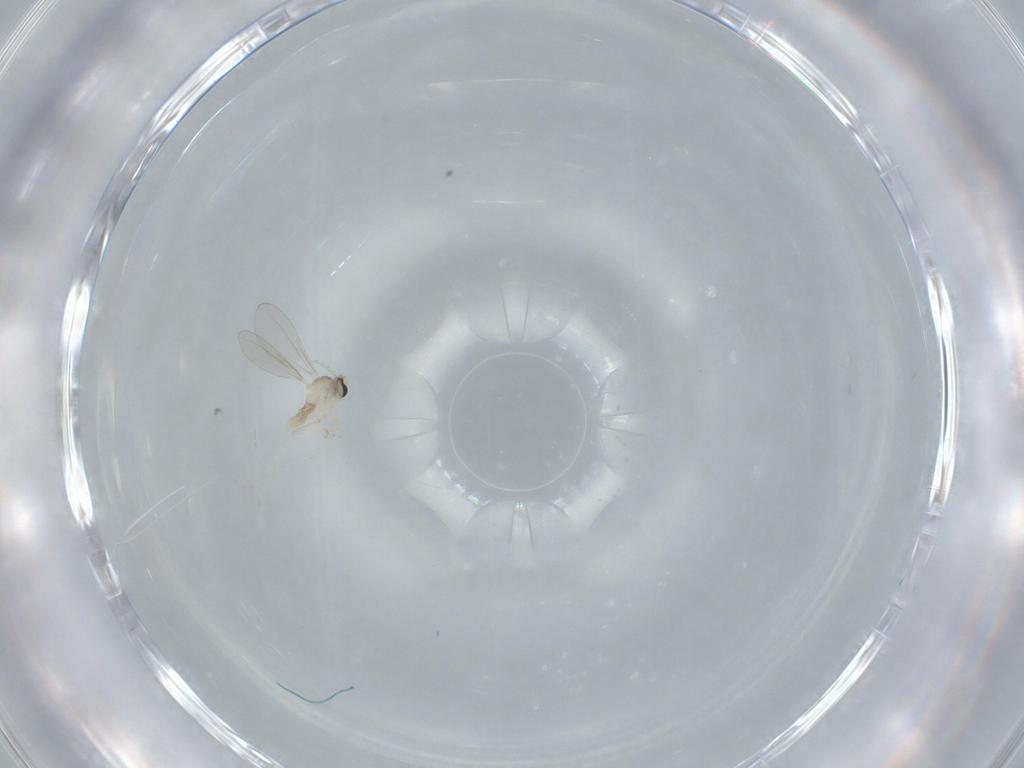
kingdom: Animalia
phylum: Arthropoda
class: Insecta
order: Diptera
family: Cecidomyiidae
